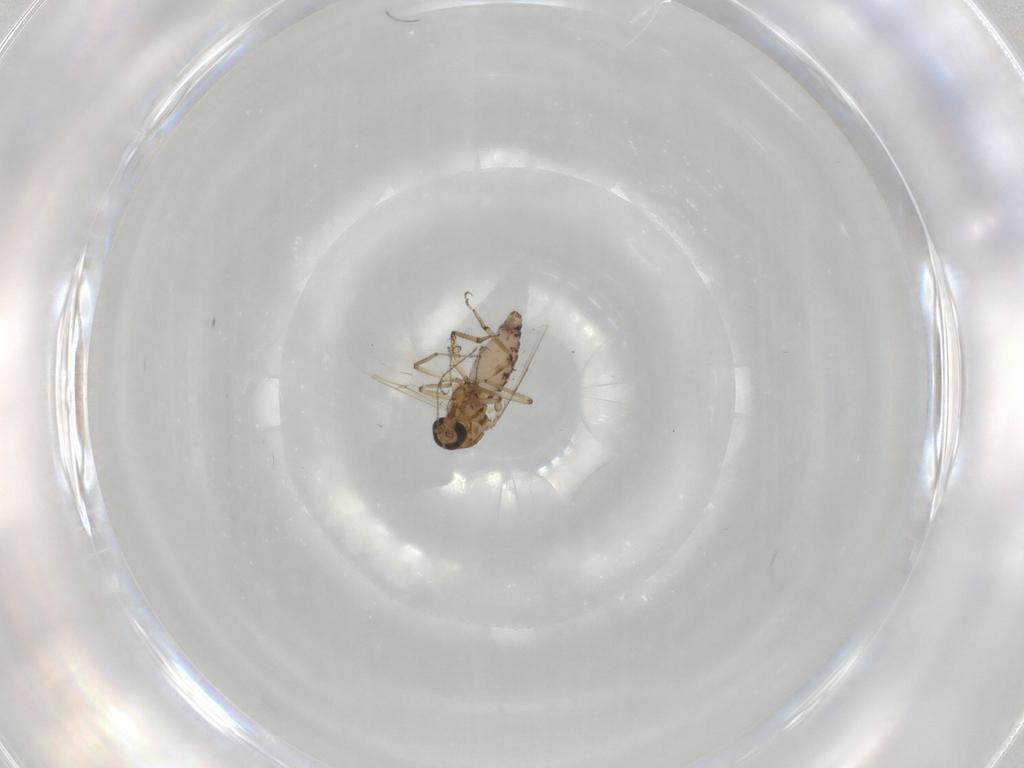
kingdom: Animalia
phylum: Arthropoda
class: Insecta
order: Diptera
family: Ceratopogonidae
